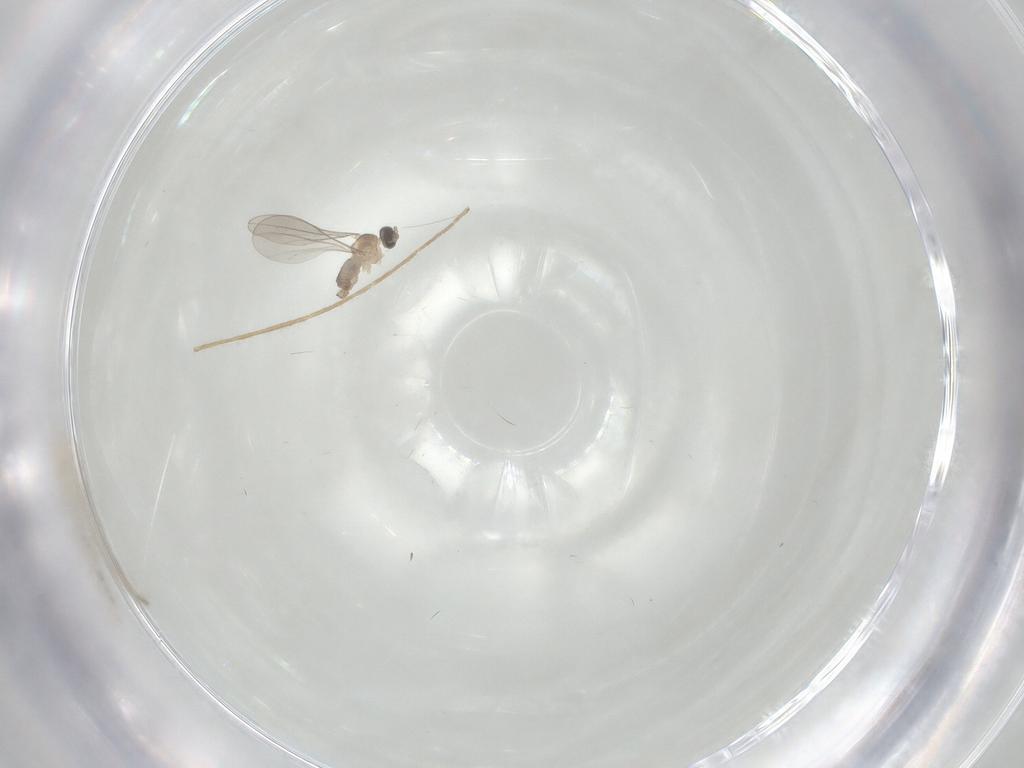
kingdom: Animalia
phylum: Arthropoda
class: Insecta
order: Diptera
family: Cecidomyiidae
